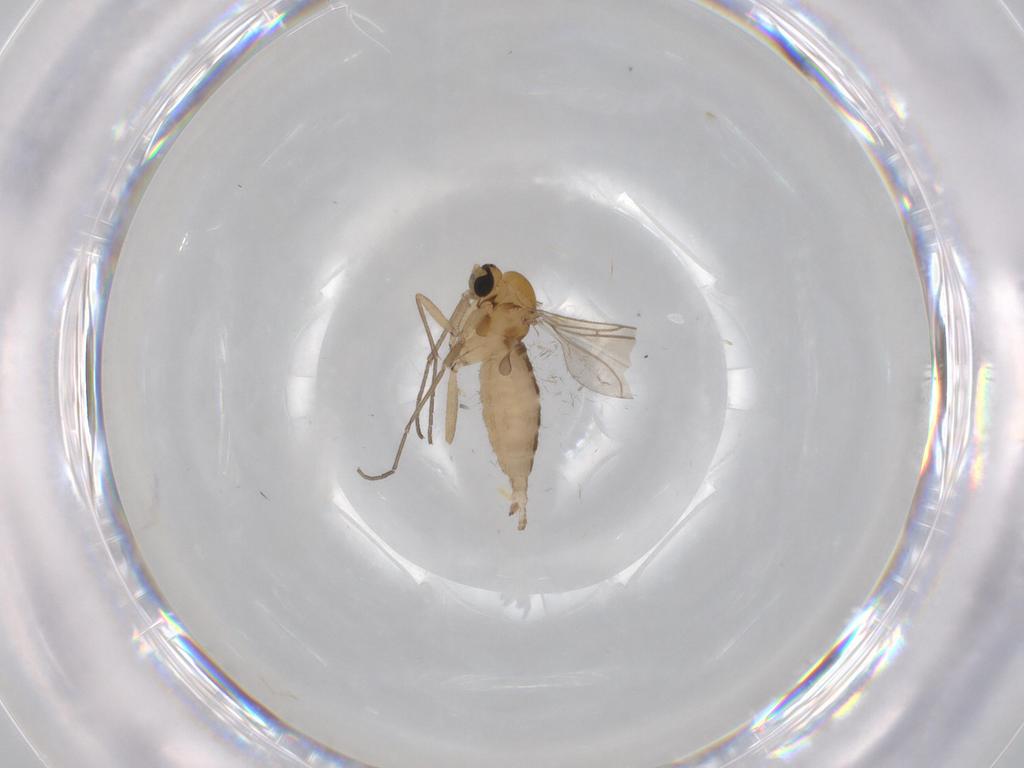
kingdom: Animalia
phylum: Arthropoda
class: Insecta
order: Diptera
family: Sciaridae
